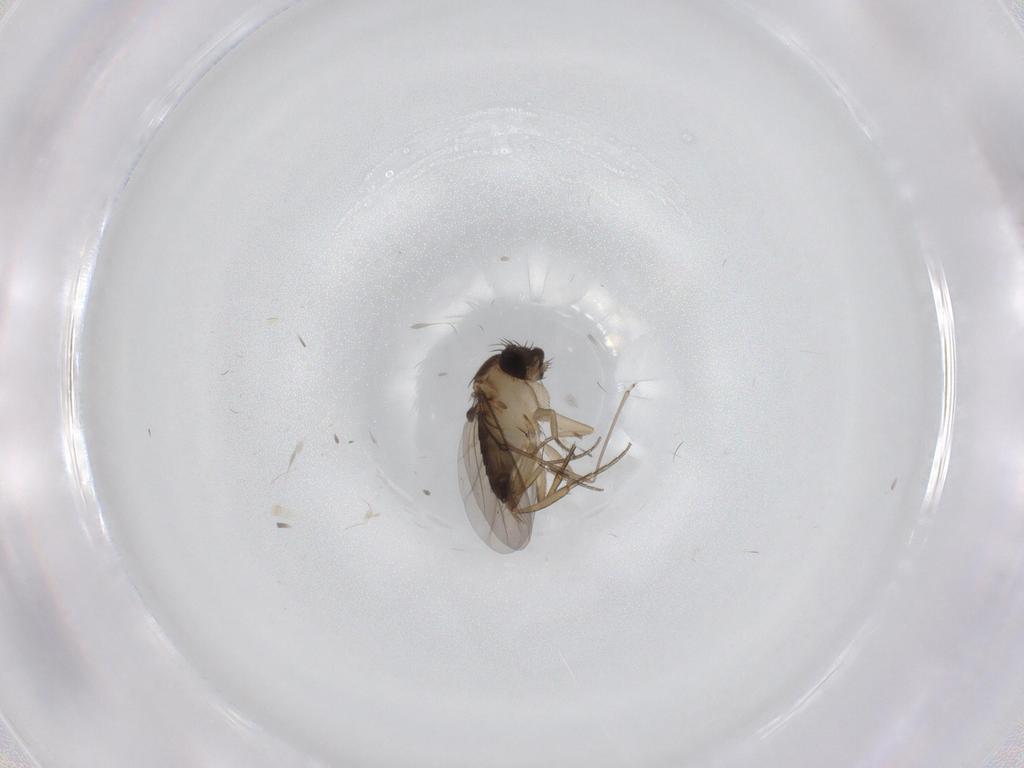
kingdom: Animalia
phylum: Arthropoda
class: Insecta
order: Diptera
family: Cecidomyiidae
